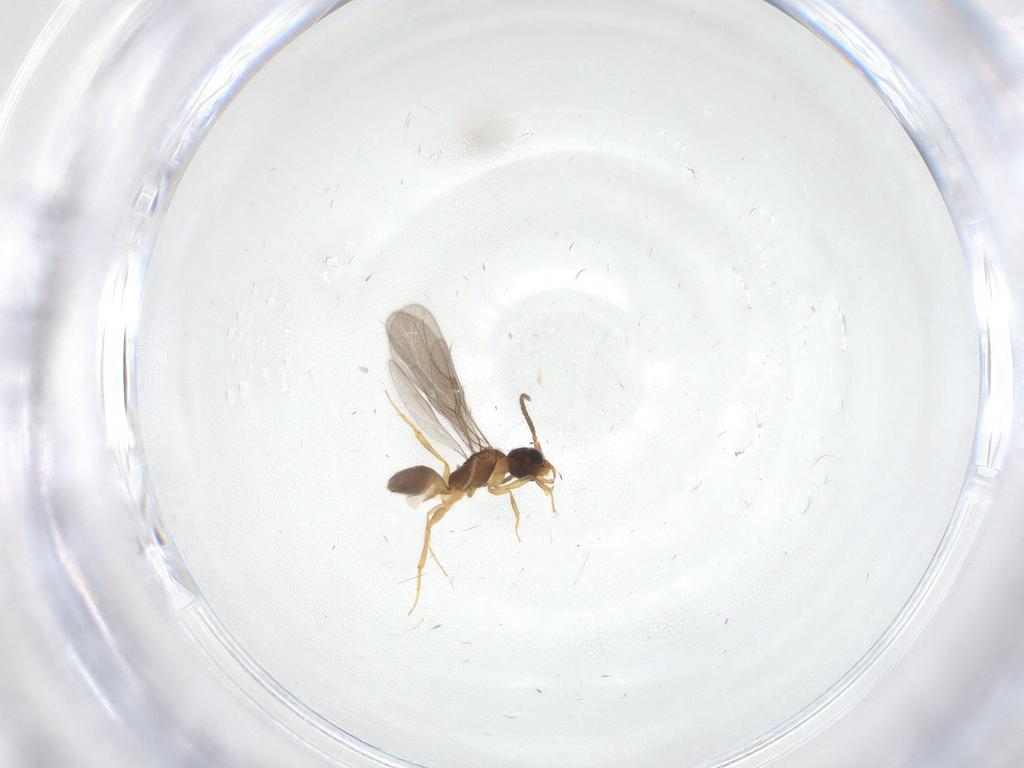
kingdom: Animalia
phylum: Arthropoda
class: Insecta
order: Hymenoptera
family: Bethylidae
